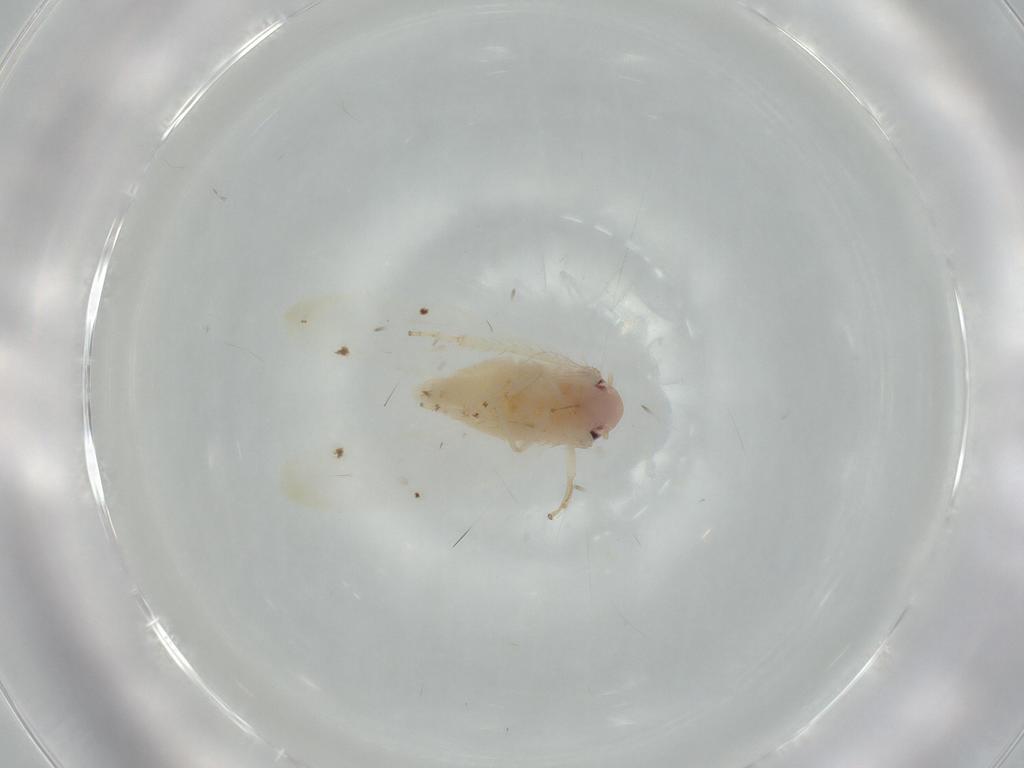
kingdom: Animalia
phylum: Arthropoda
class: Insecta
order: Hemiptera
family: Cicadellidae
